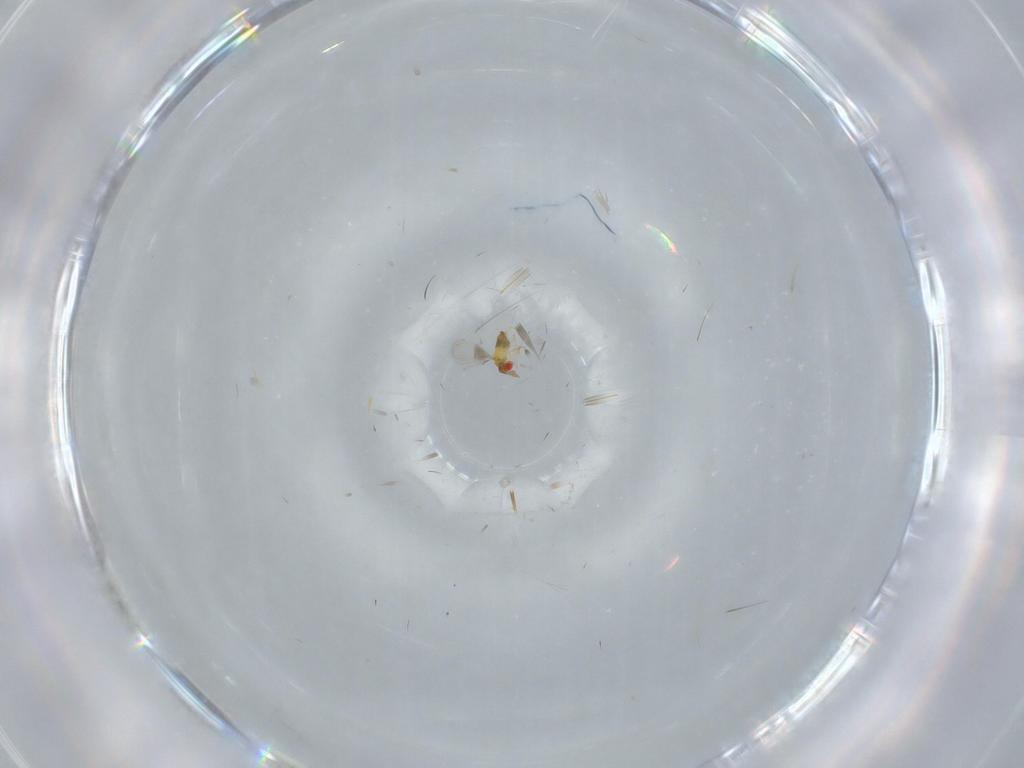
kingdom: Animalia
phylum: Arthropoda
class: Insecta
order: Hymenoptera
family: Trichogrammatidae
